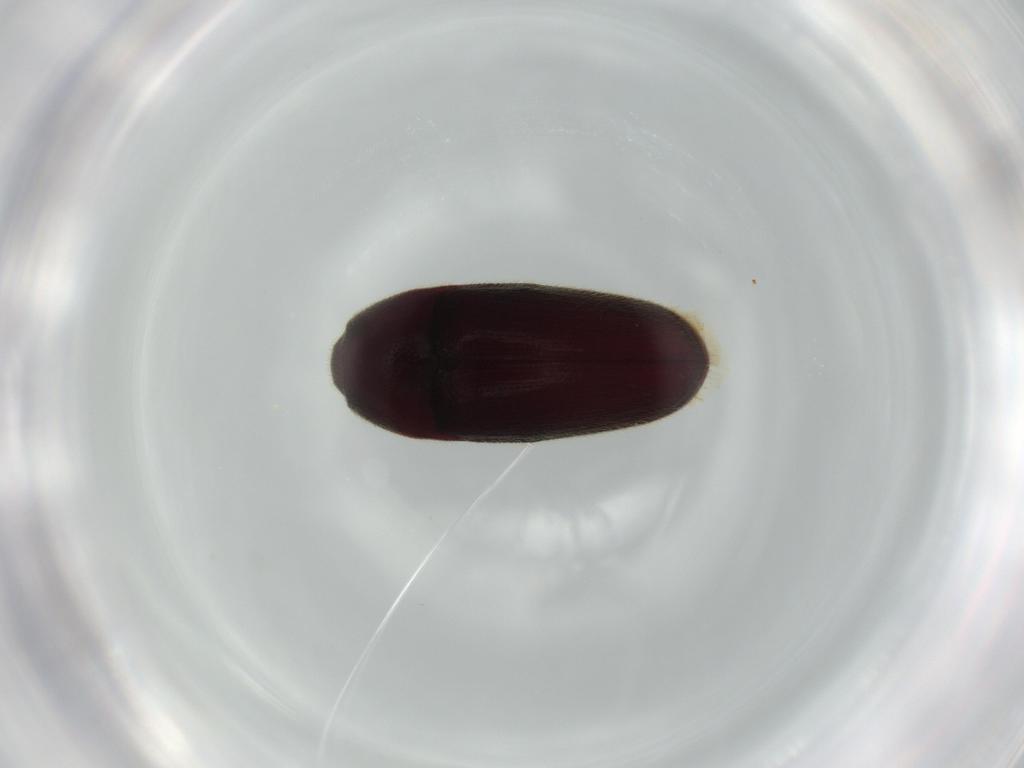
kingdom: Animalia
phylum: Arthropoda
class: Insecta
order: Coleoptera
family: Throscidae
